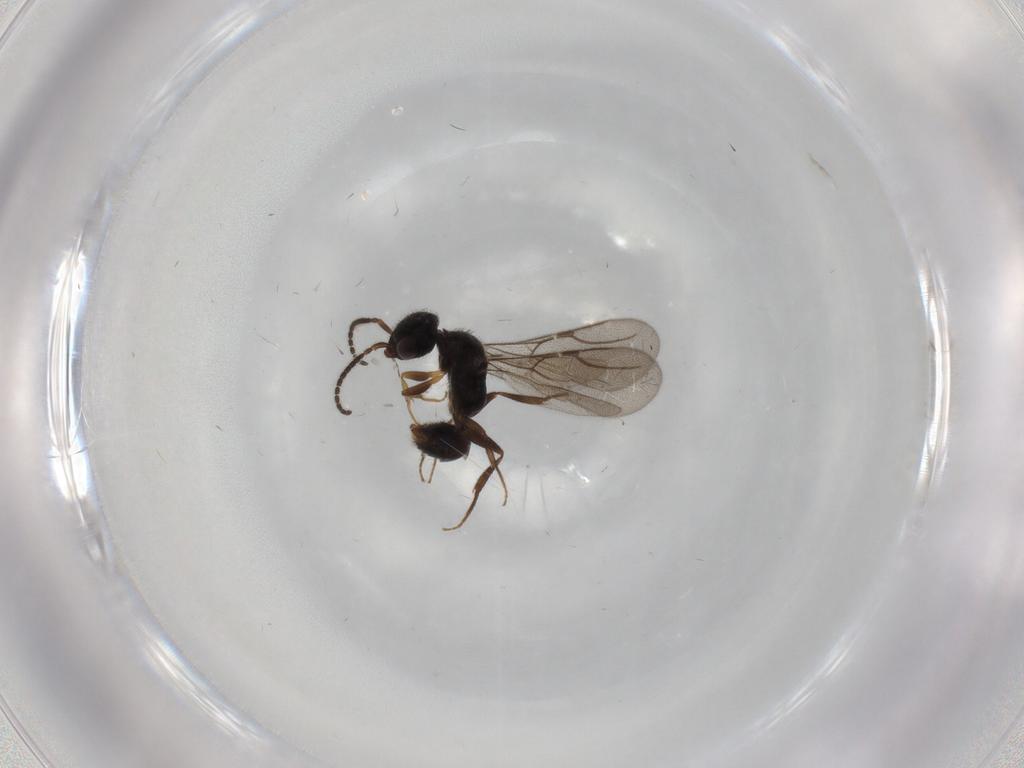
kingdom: Animalia
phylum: Arthropoda
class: Insecta
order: Hymenoptera
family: Bethylidae
